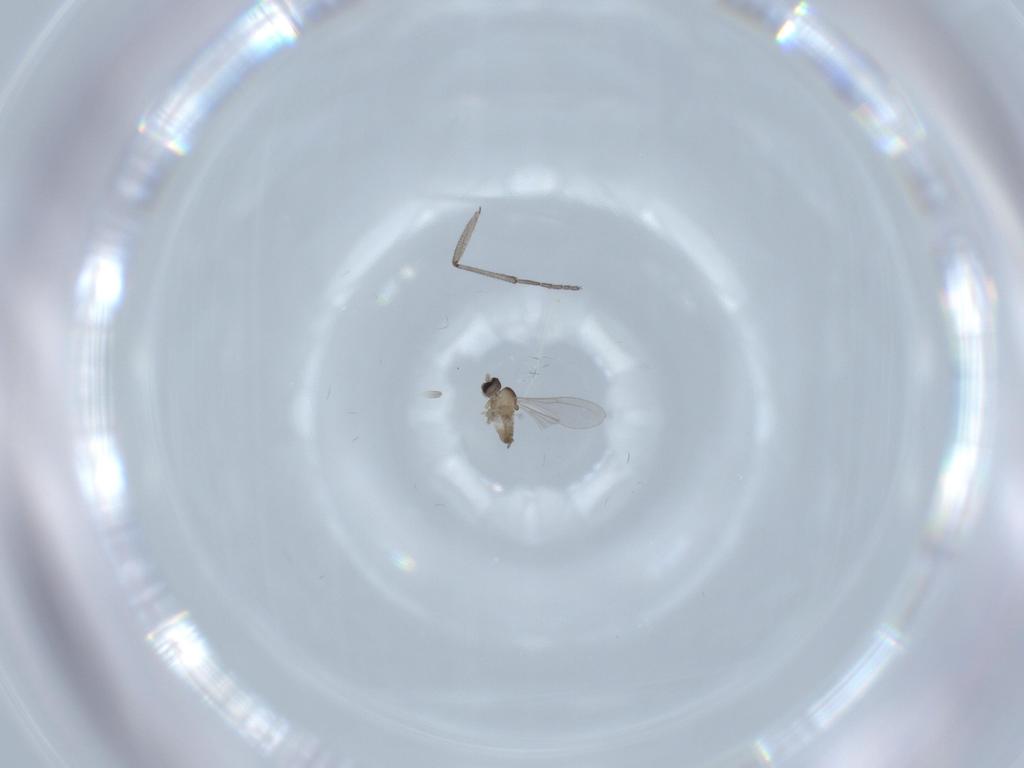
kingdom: Animalia
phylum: Arthropoda
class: Insecta
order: Diptera
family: Cecidomyiidae
